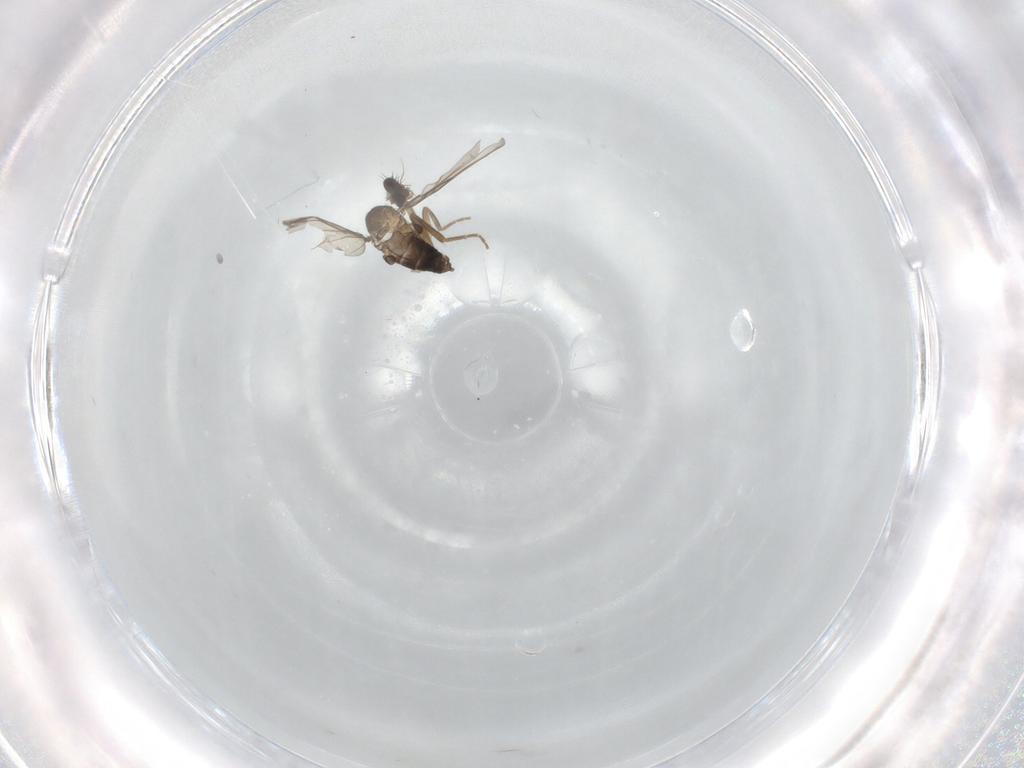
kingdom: Animalia
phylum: Arthropoda
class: Insecta
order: Diptera
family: Phoridae
